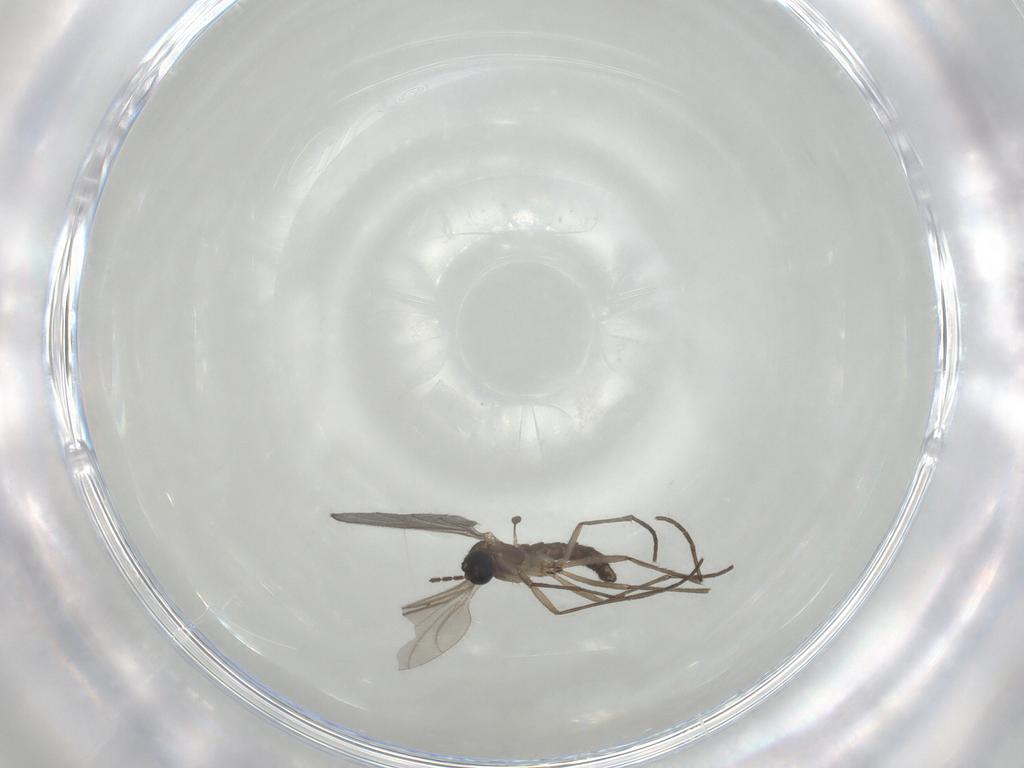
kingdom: Animalia
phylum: Arthropoda
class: Insecta
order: Diptera
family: Sciaridae
